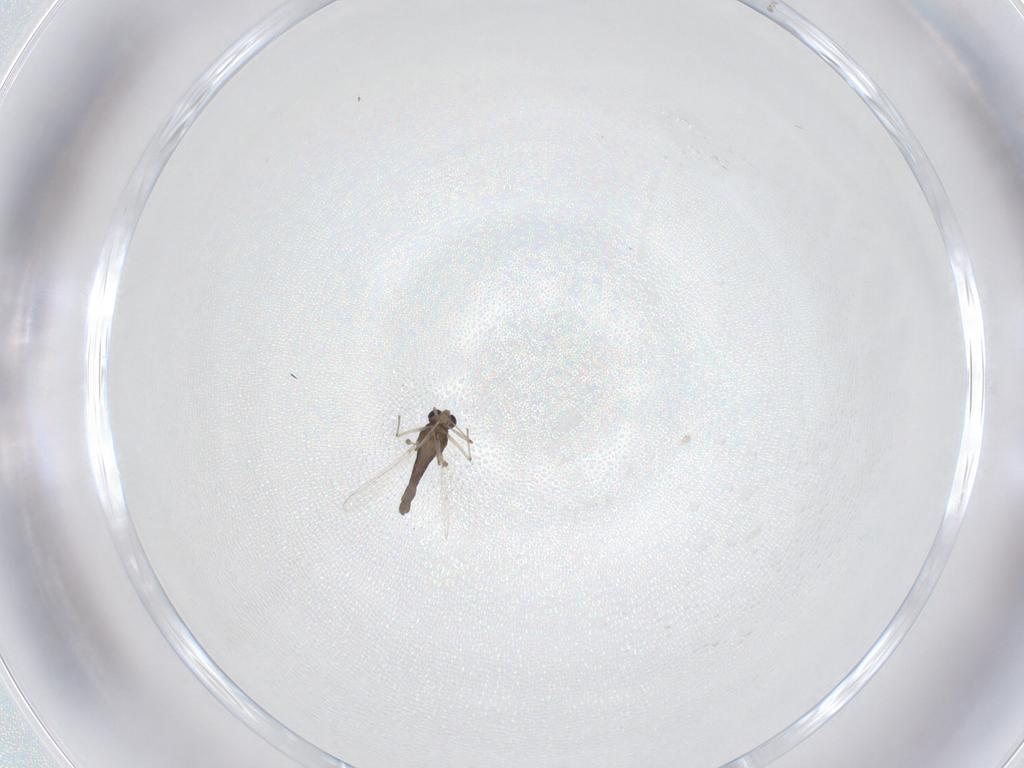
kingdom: Animalia
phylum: Arthropoda
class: Insecta
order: Diptera
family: Chironomidae
